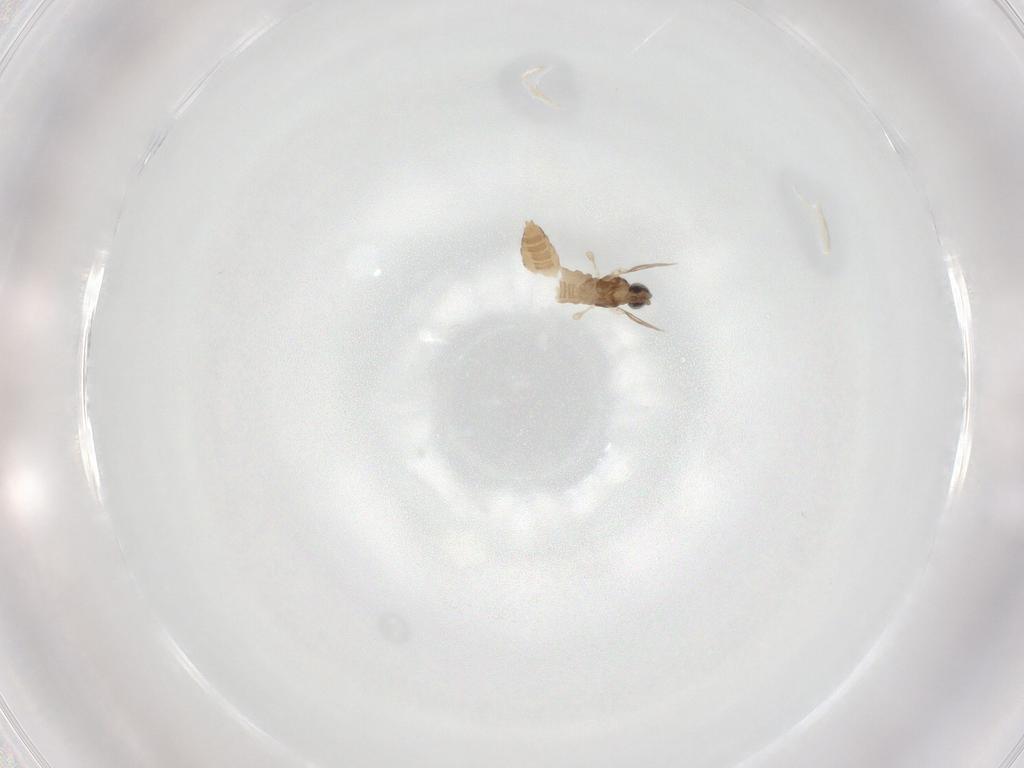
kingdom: Animalia
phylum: Arthropoda
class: Insecta
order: Diptera
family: Cecidomyiidae
